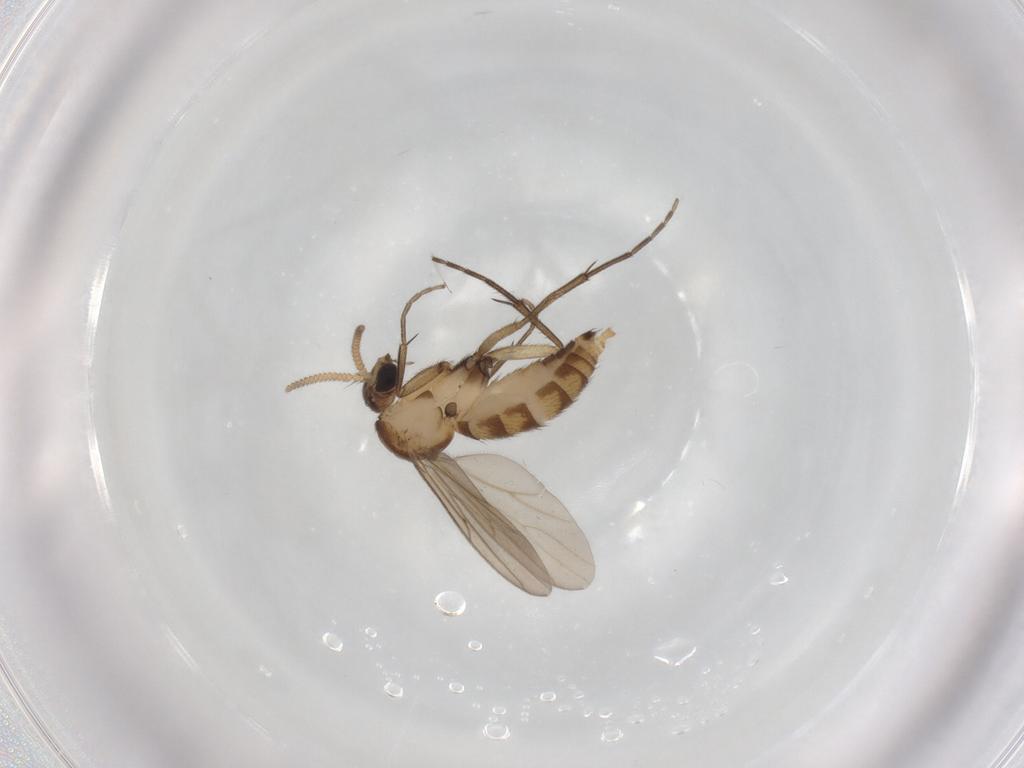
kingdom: Animalia
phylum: Arthropoda
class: Insecta
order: Diptera
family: Mycetophilidae
